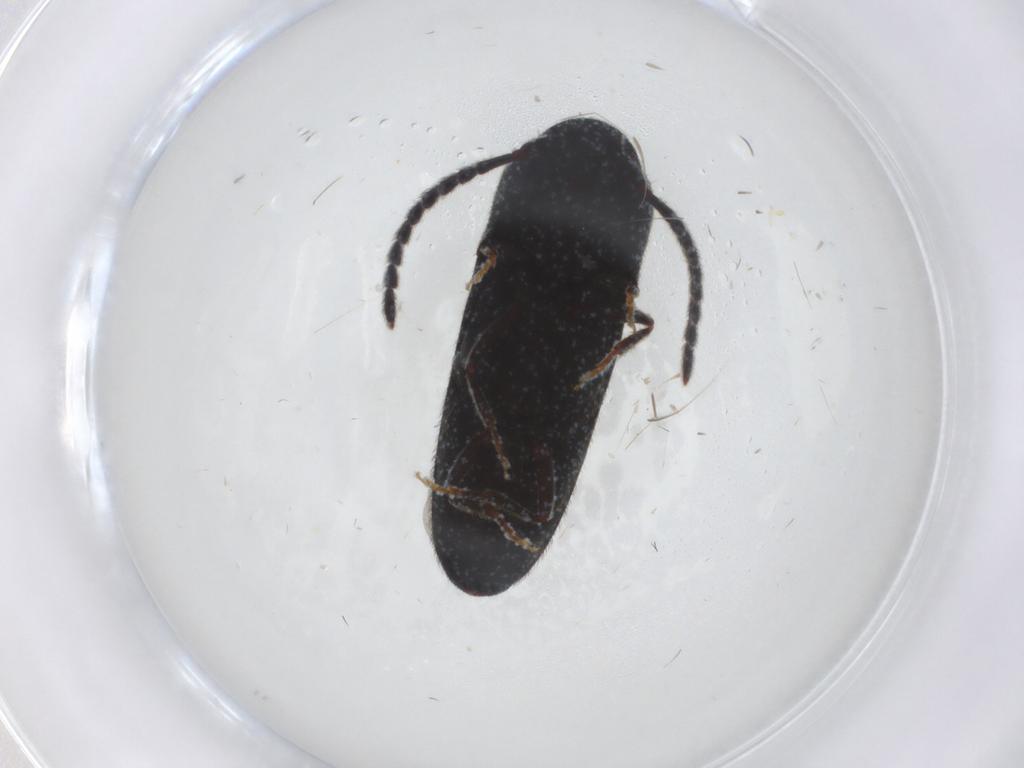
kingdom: Animalia
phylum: Arthropoda
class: Insecta
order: Coleoptera
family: Eucnemidae
